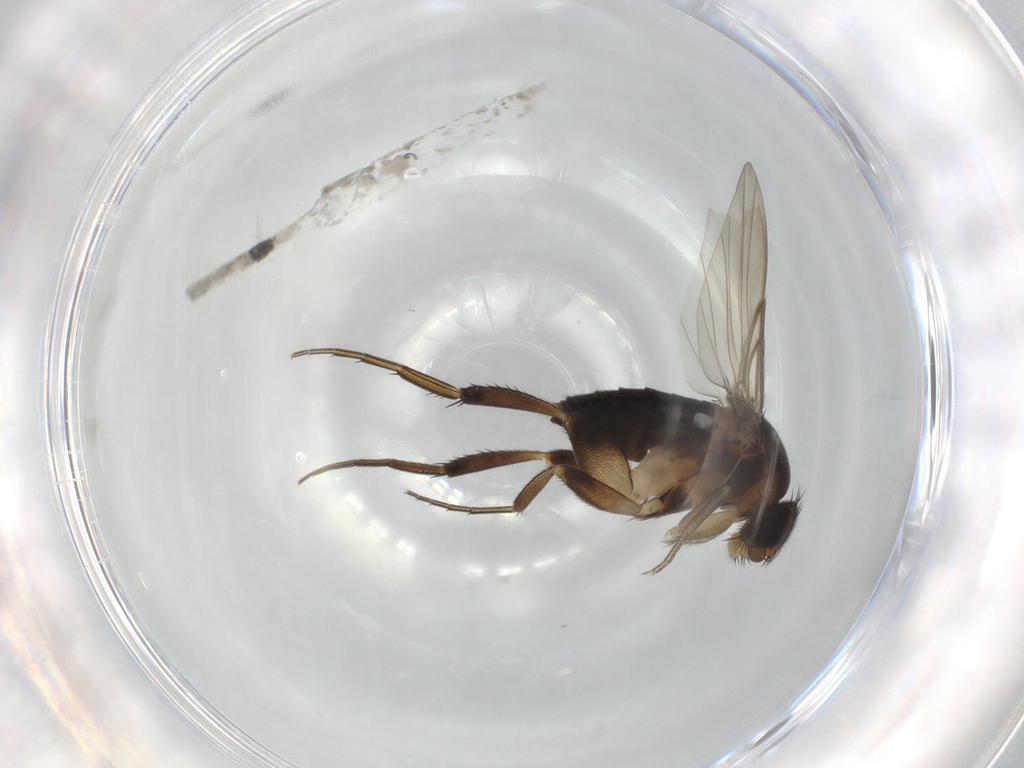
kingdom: Animalia
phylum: Arthropoda
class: Insecta
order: Diptera
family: Phoridae
